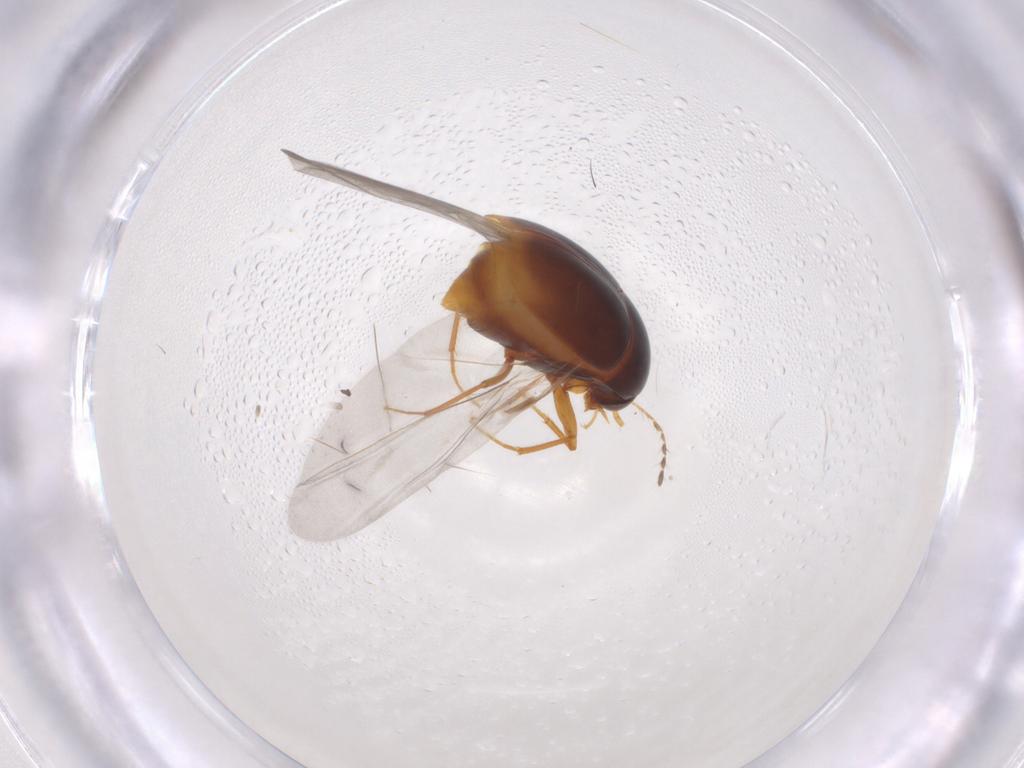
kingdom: Animalia
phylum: Arthropoda
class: Insecta
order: Coleoptera
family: Staphylinidae
